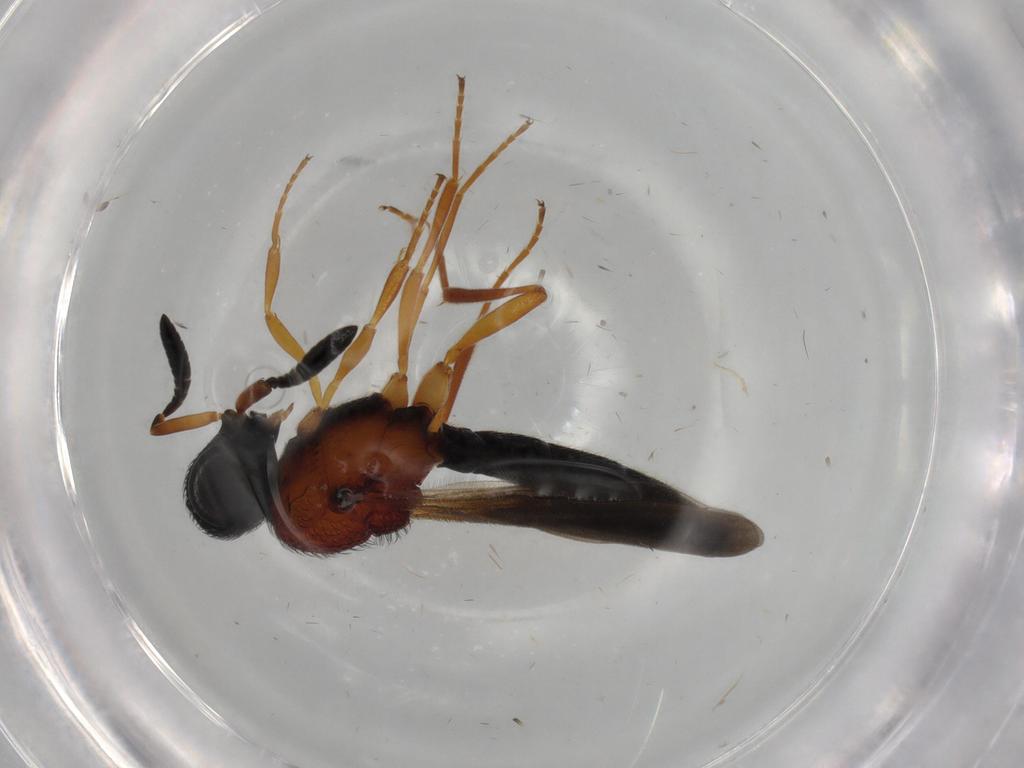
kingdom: Animalia
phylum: Arthropoda
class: Insecta
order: Hymenoptera
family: Scelionidae
